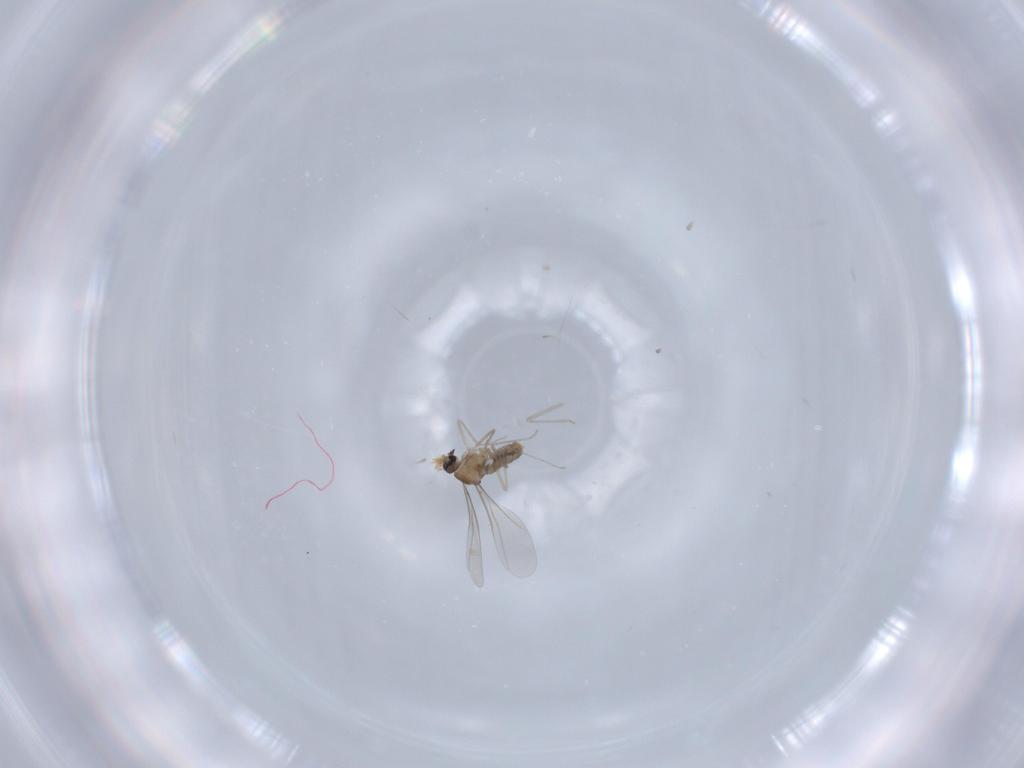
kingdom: Animalia
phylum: Arthropoda
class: Insecta
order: Diptera
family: Cecidomyiidae
